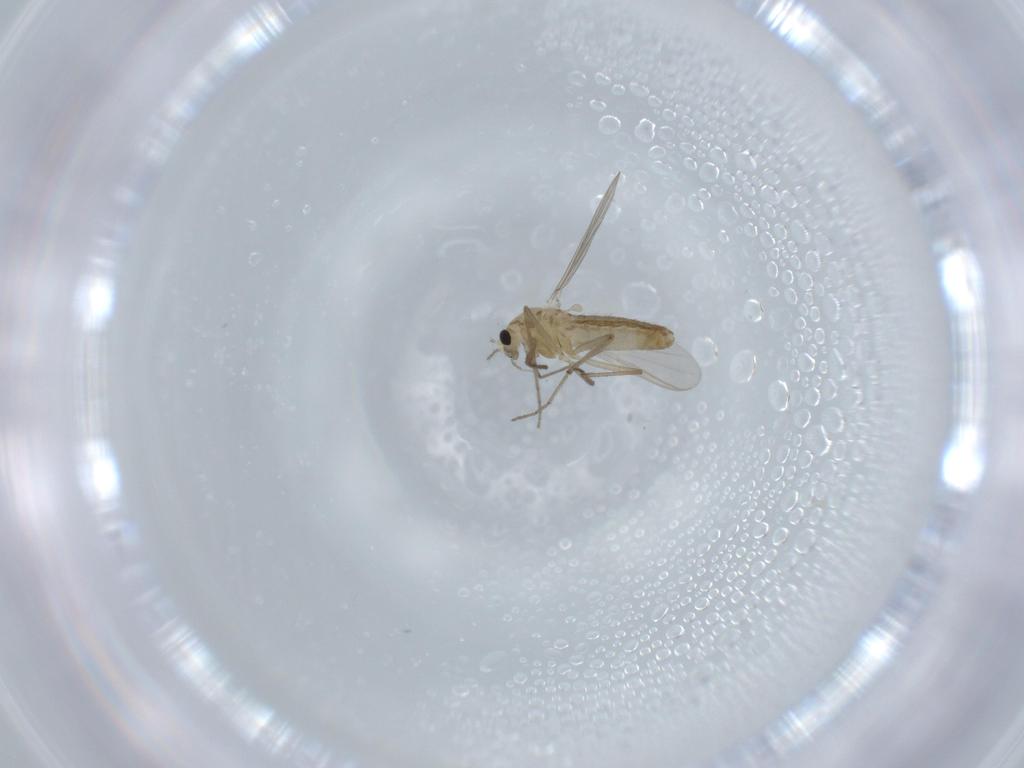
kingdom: Animalia
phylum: Arthropoda
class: Insecta
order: Diptera
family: Chironomidae
